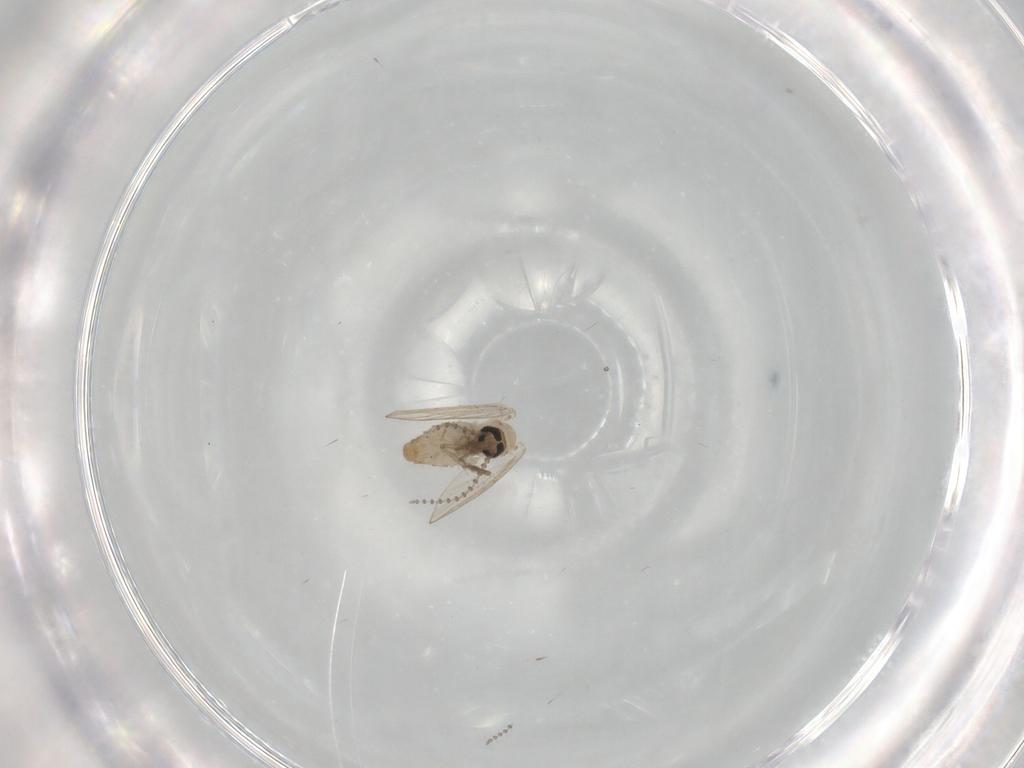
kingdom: Animalia
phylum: Arthropoda
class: Insecta
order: Diptera
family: Psychodidae
